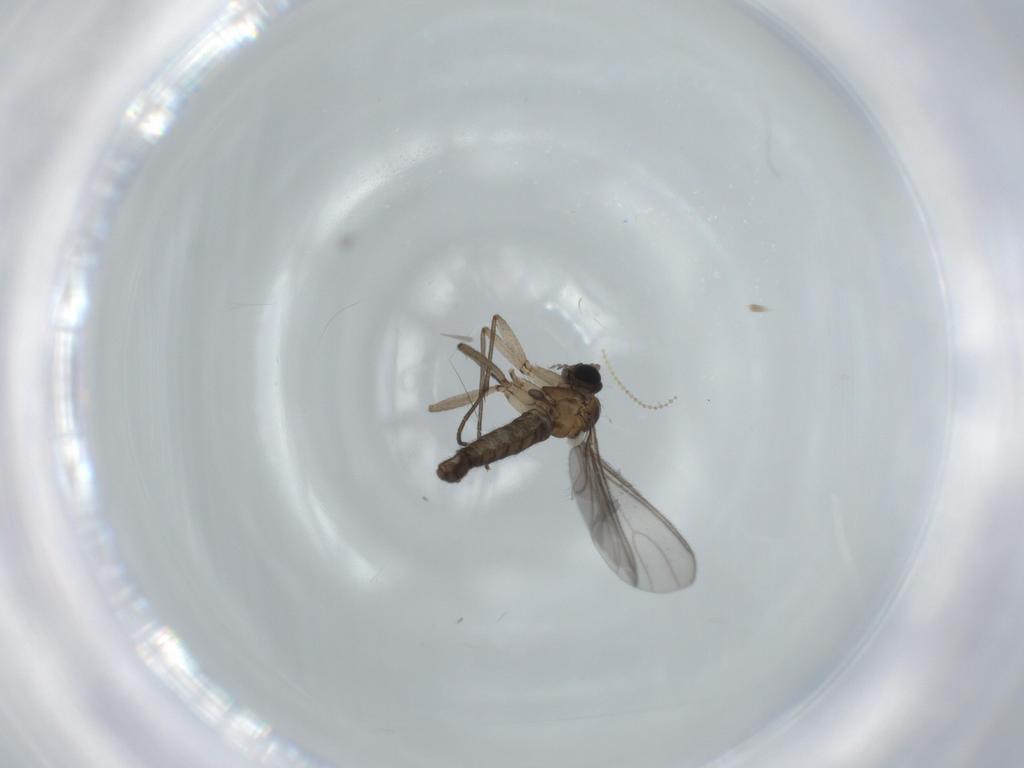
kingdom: Animalia
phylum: Arthropoda
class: Insecta
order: Diptera
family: Sciaridae
